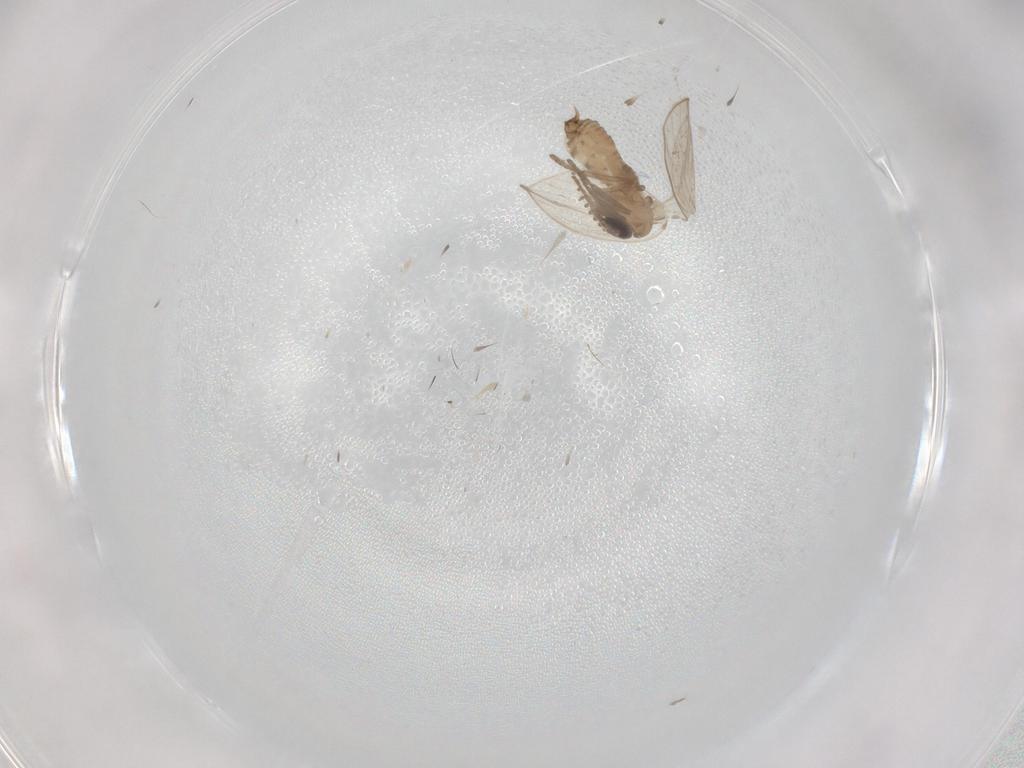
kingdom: Animalia
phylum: Arthropoda
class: Insecta
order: Diptera
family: Psychodidae
